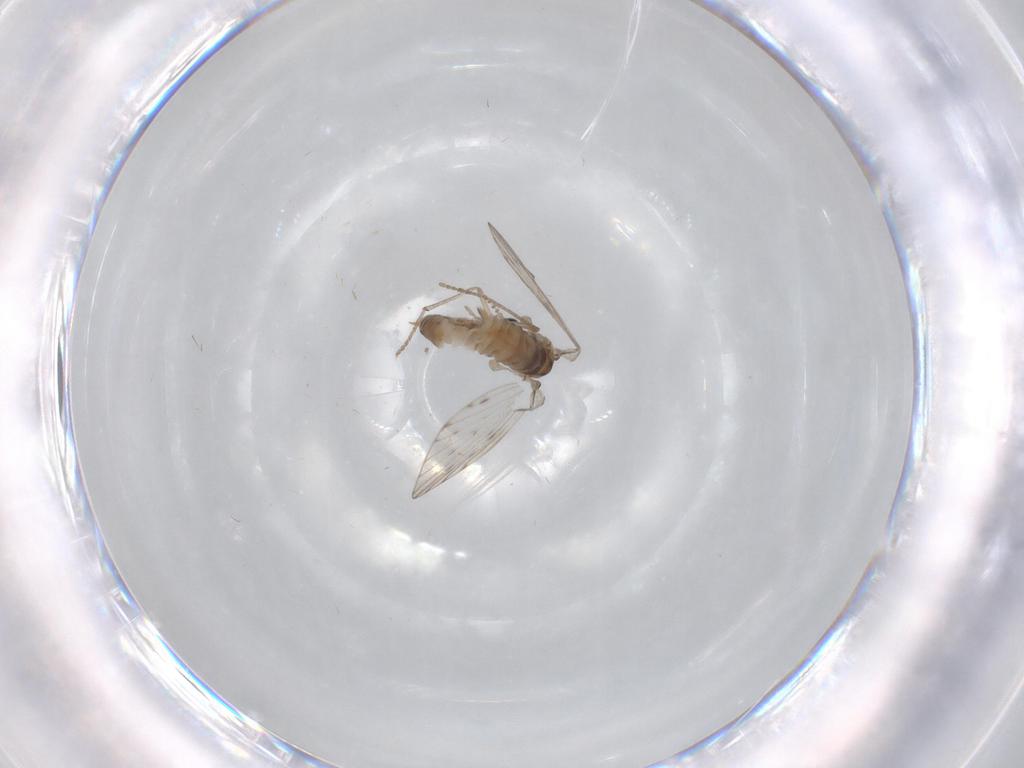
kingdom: Animalia
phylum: Arthropoda
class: Insecta
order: Diptera
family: Psychodidae
